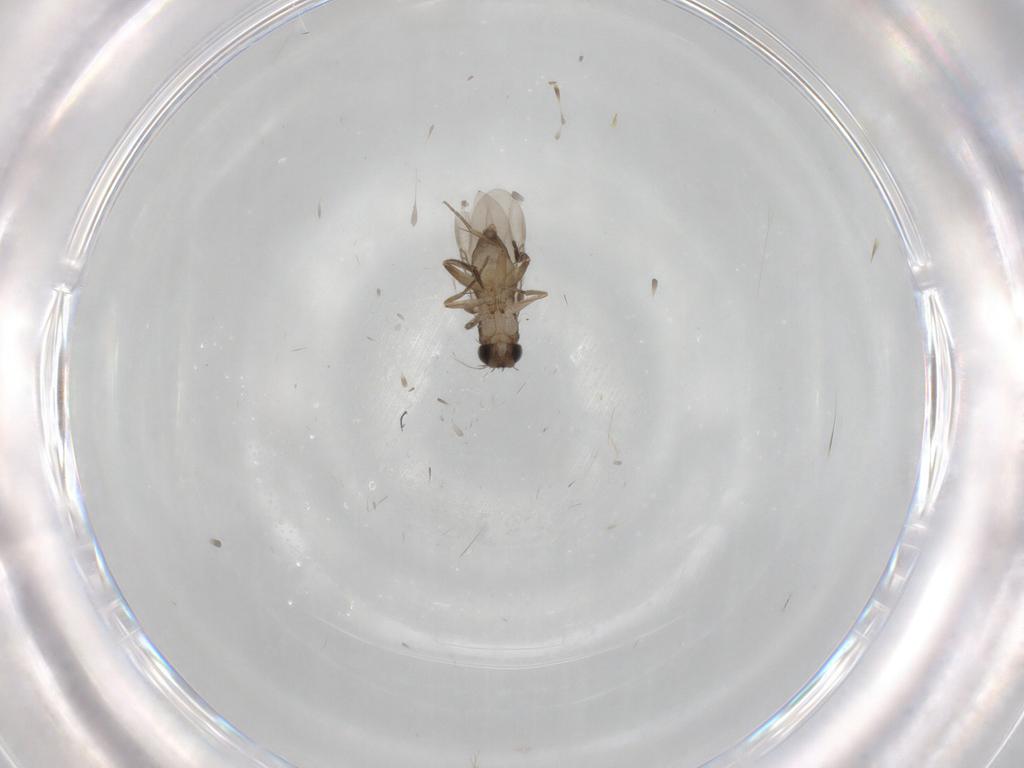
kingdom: Animalia
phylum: Arthropoda
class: Insecta
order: Diptera
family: Phoridae
